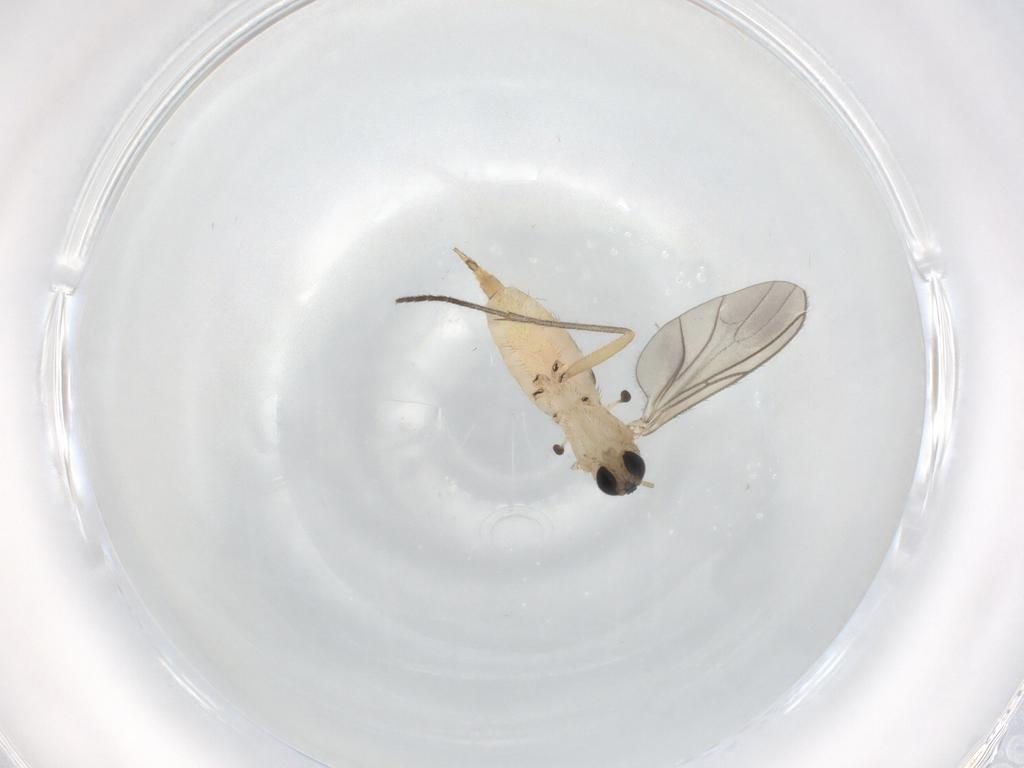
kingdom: Animalia
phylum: Arthropoda
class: Insecta
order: Diptera
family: Sciaridae
